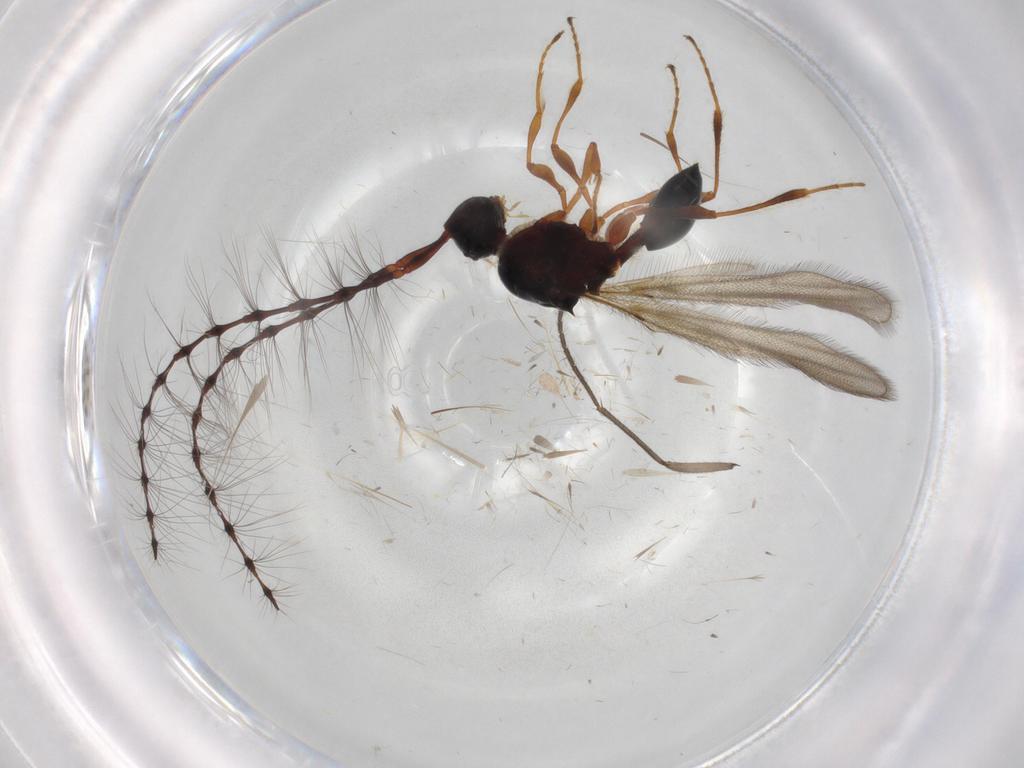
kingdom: Animalia
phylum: Arthropoda
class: Insecta
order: Hymenoptera
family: Diapriidae
